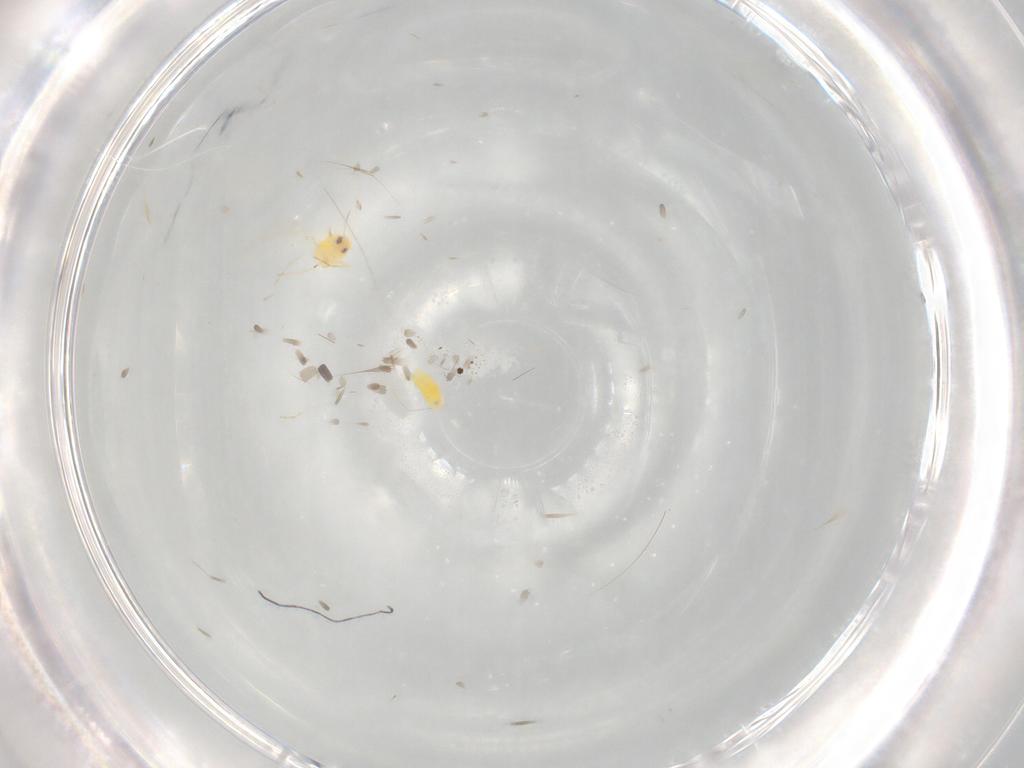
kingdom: Animalia
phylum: Arthropoda
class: Insecta
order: Hemiptera
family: Aleyrodidae
